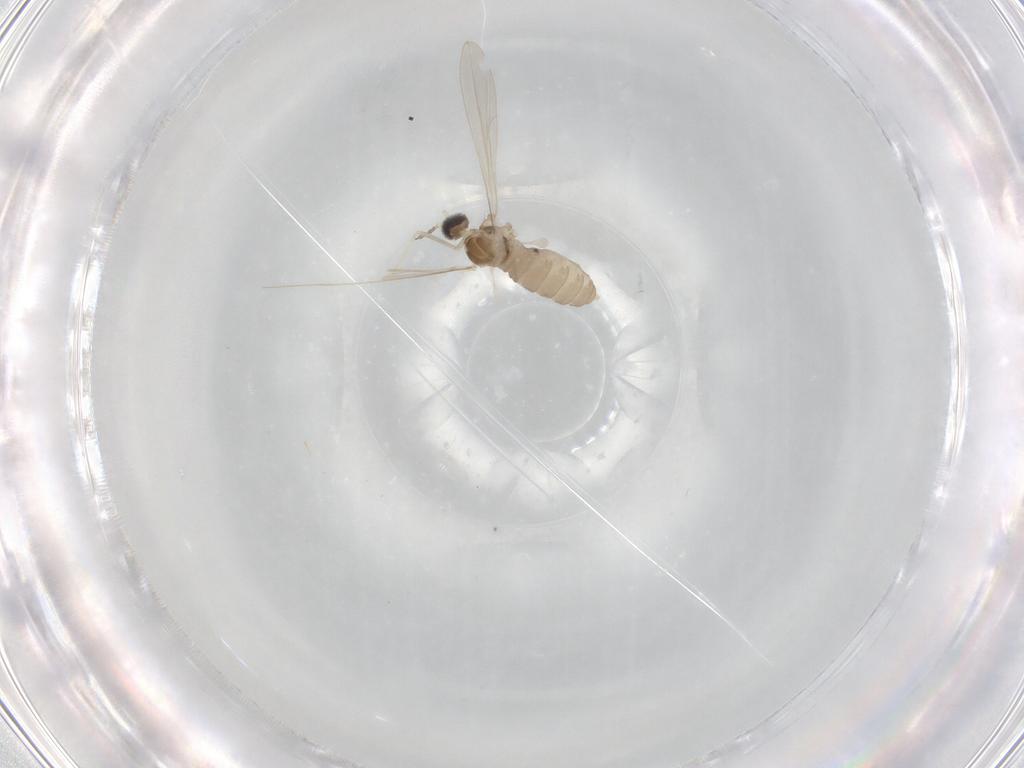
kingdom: Animalia
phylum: Arthropoda
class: Insecta
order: Diptera
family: Cecidomyiidae
